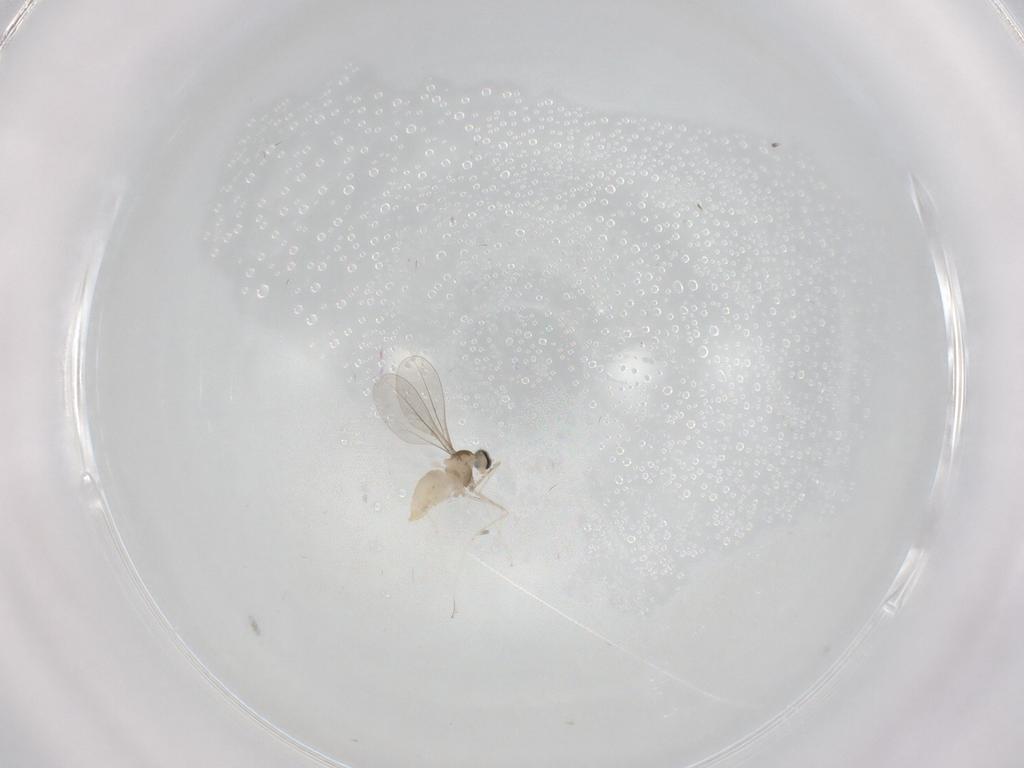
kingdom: Animalia
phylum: Arthropoda
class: Insecta
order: Diptera
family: Cecidomyiidae
